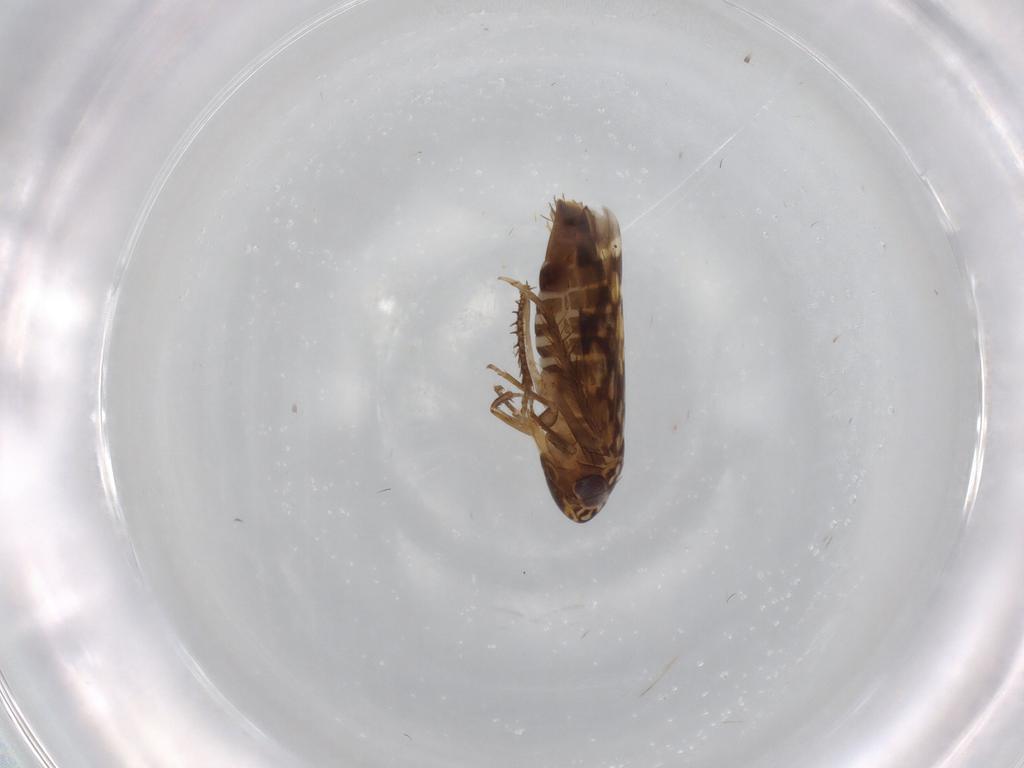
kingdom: Animalia
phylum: Arthropoda
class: Insecta
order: Hemiptera
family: Cicadellidae
